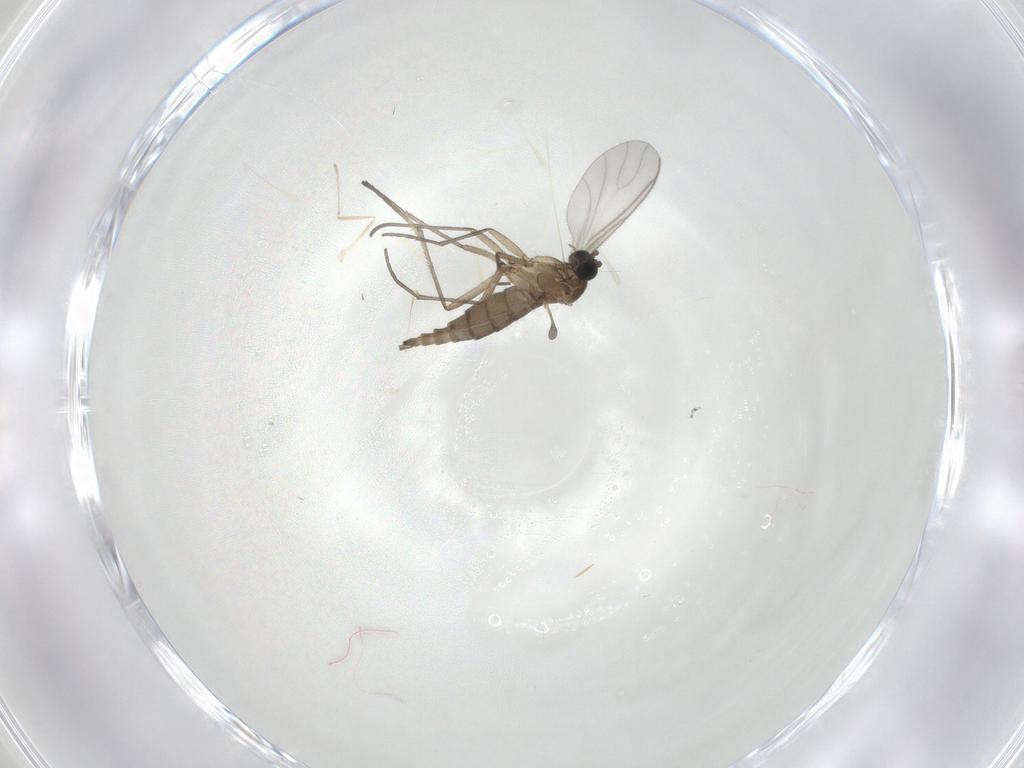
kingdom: Animalia
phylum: Arthropoda
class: Insecta
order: Diptera
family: Sciaridae
